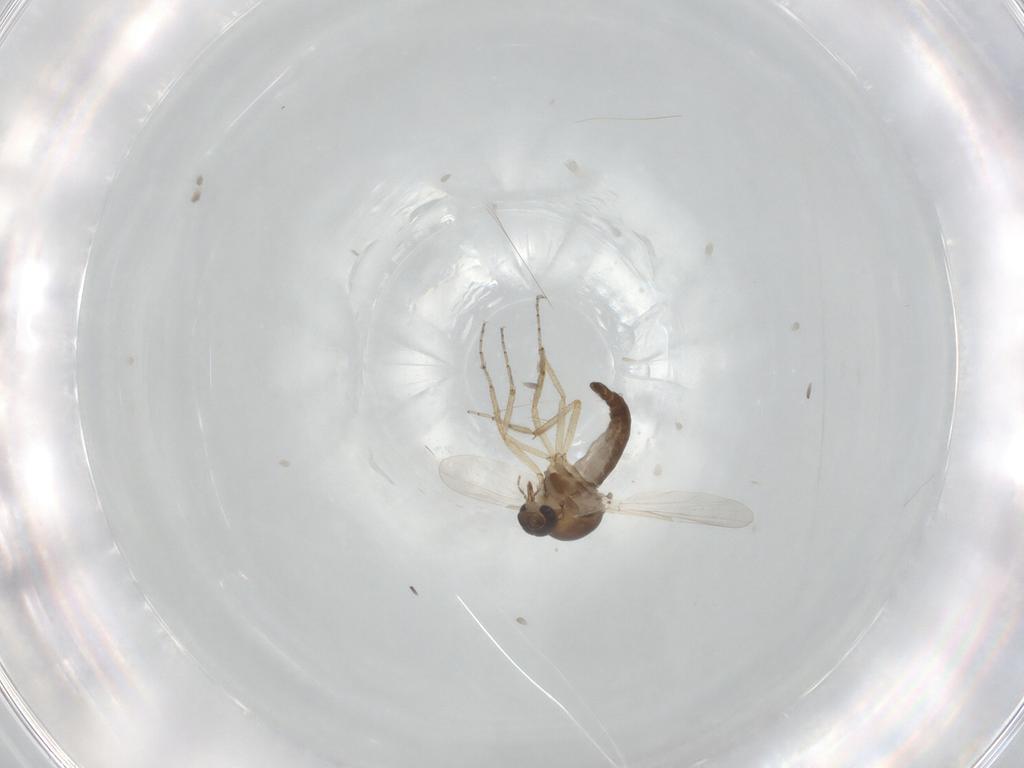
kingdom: Animalia
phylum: Arthropoda
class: Insecta
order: Diptera
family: Ceratopogonidae
